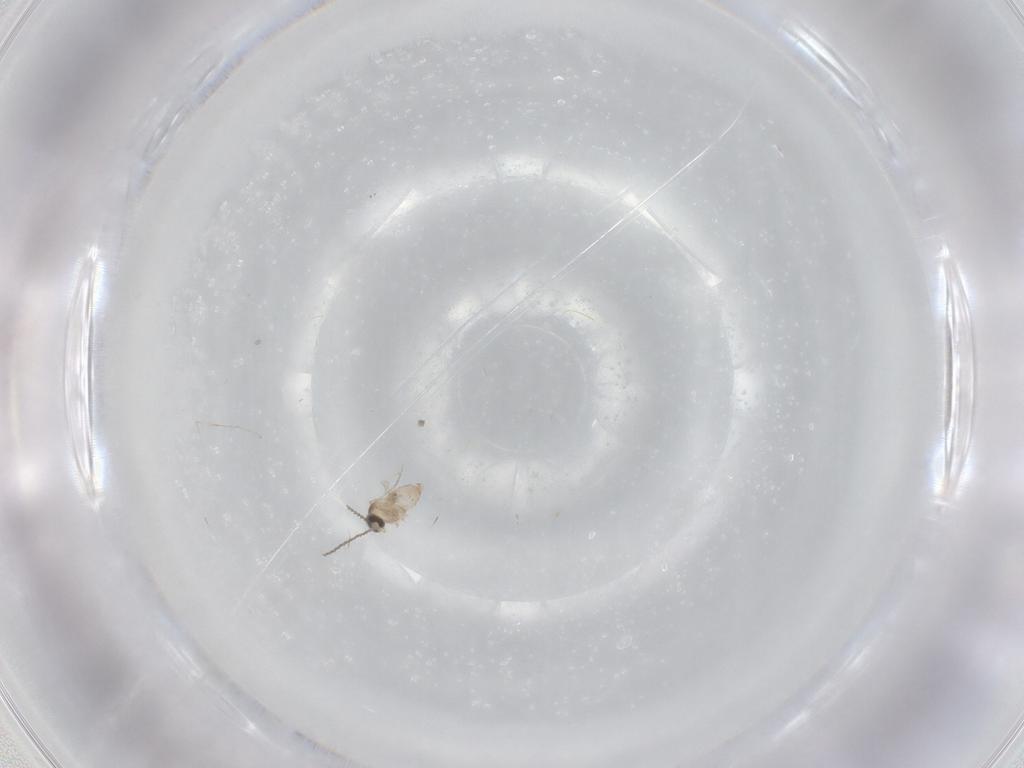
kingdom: Animalia
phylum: Arthropoda
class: Insecta
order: Diptera
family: Cecidomyiidae
